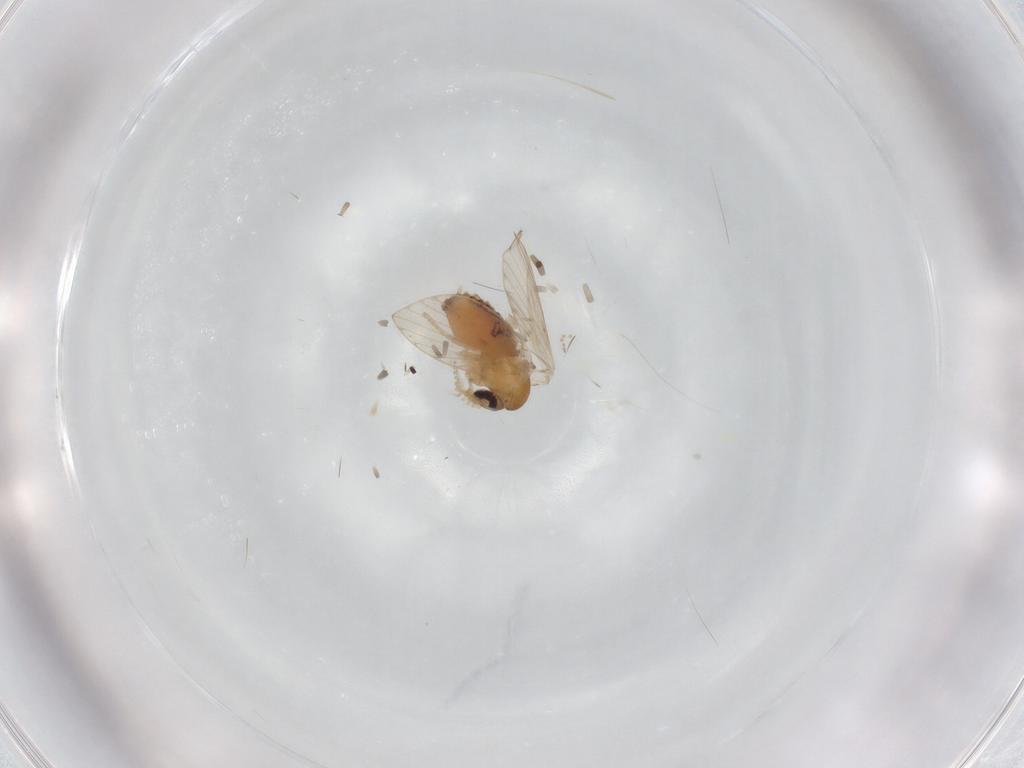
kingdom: Animalia
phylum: Arthropoda
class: Insecta
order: Diptera
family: Psychodidae
